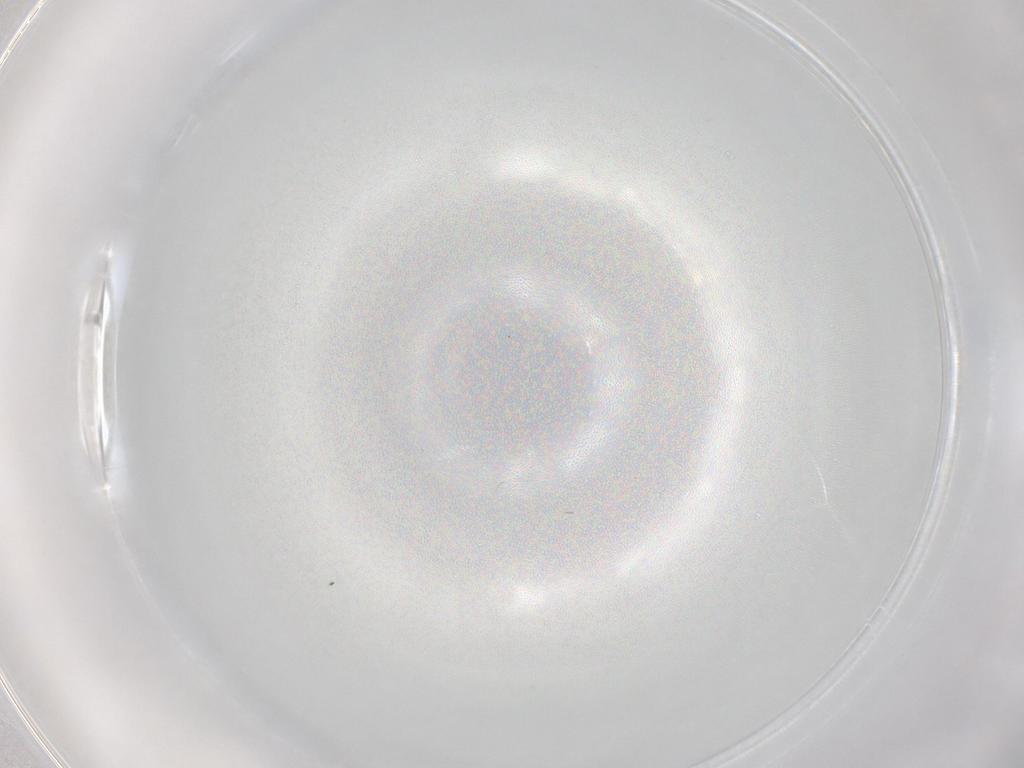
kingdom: Animalia
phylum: Arthropoda
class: Insecta
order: Diptera
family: Cecidomyiidae
